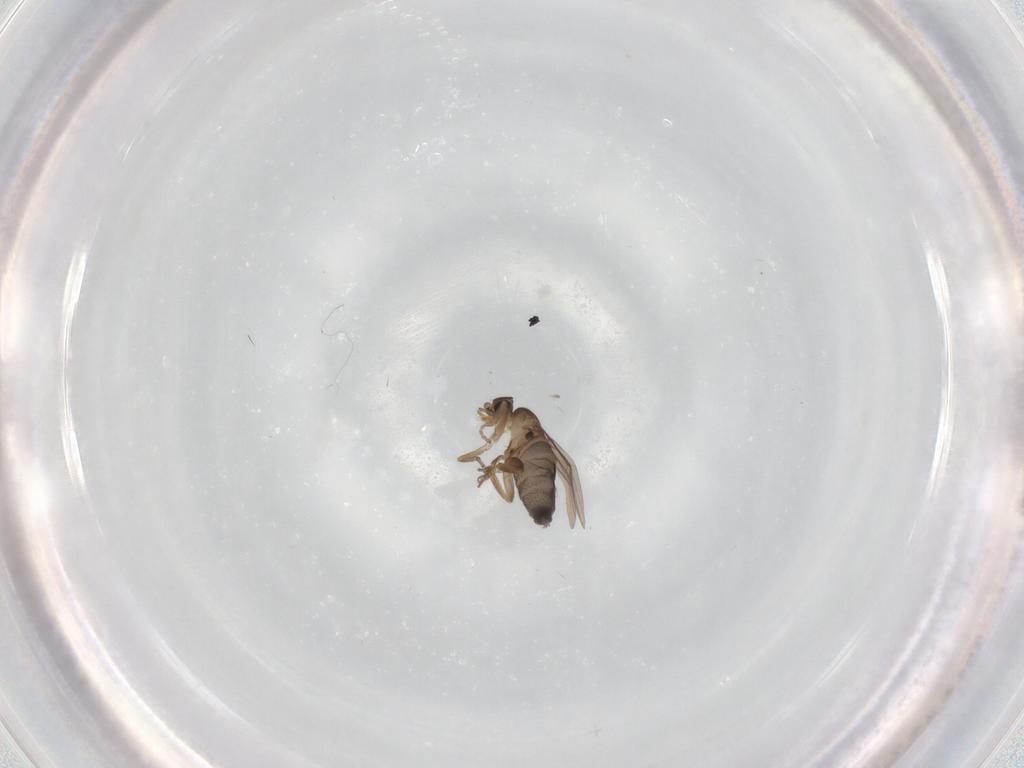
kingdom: Animalia
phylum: Arthropoda
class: Insecta
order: Diptera
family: Phoridae
